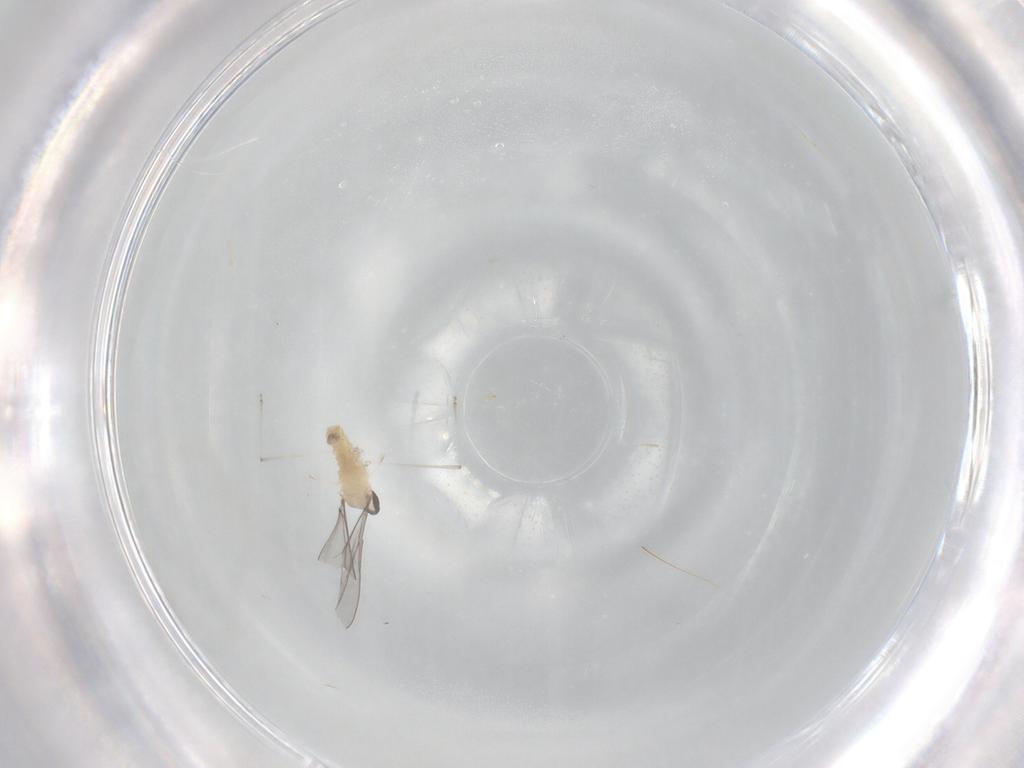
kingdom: Animalia
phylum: Arthropoda
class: Insecta
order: Diptera
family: Cecidomyiidae
